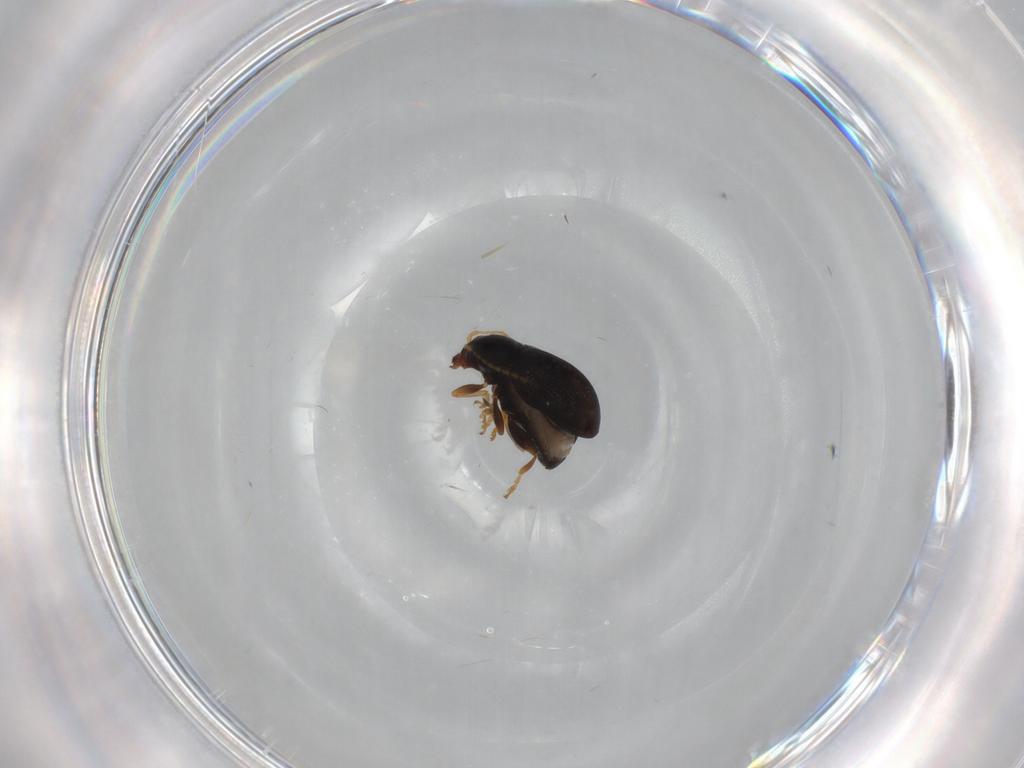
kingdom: Animalia
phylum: Arthropoda
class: Insecta
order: Coleoptera
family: Chrysomelidae
